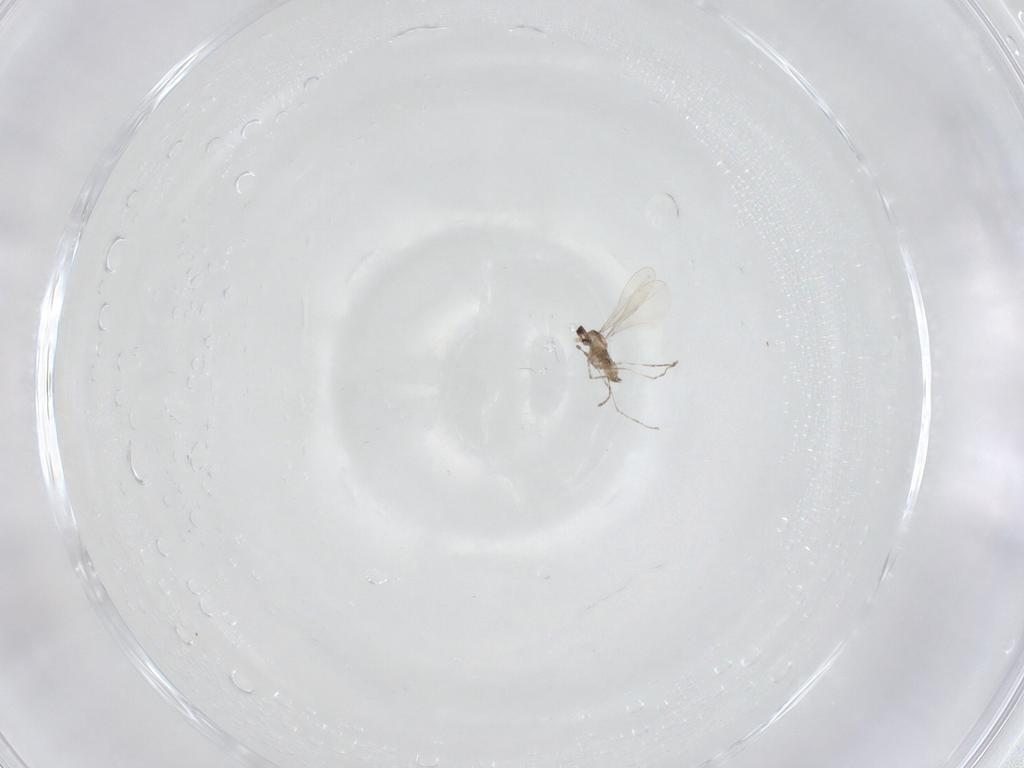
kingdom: Animalia
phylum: Arthropoda
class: Insecta
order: Diptera
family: Cecidomyiidae
